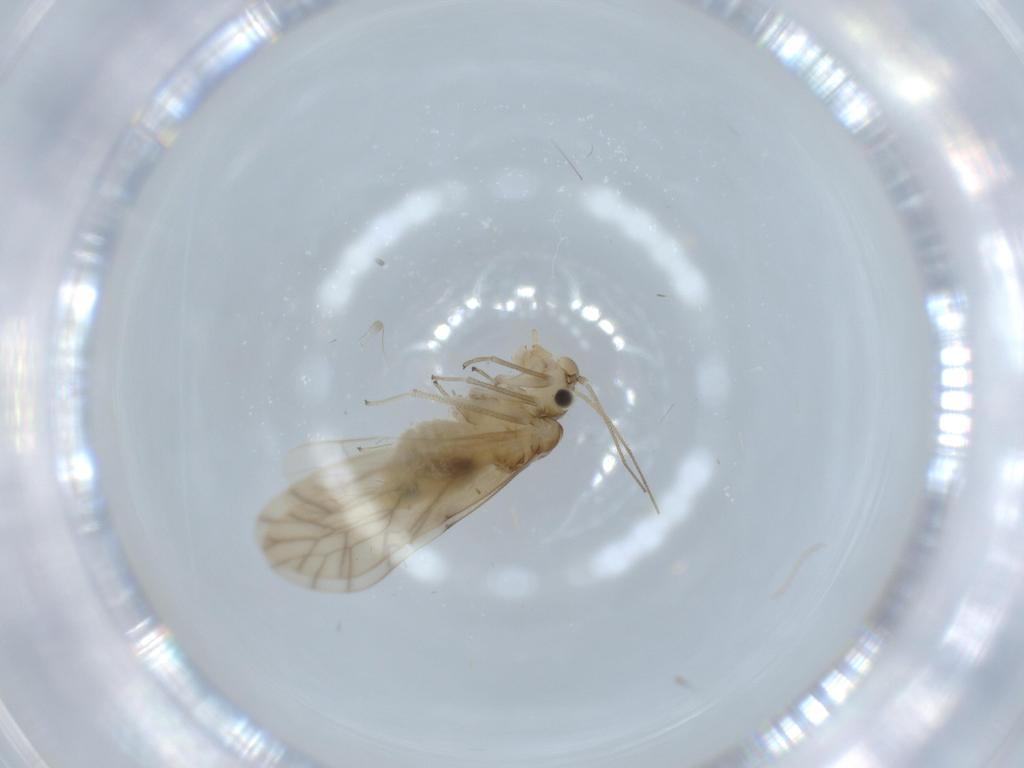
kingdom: Animalia
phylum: Arthropoda
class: Insecta
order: Psocodea
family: Caeciliusidae
